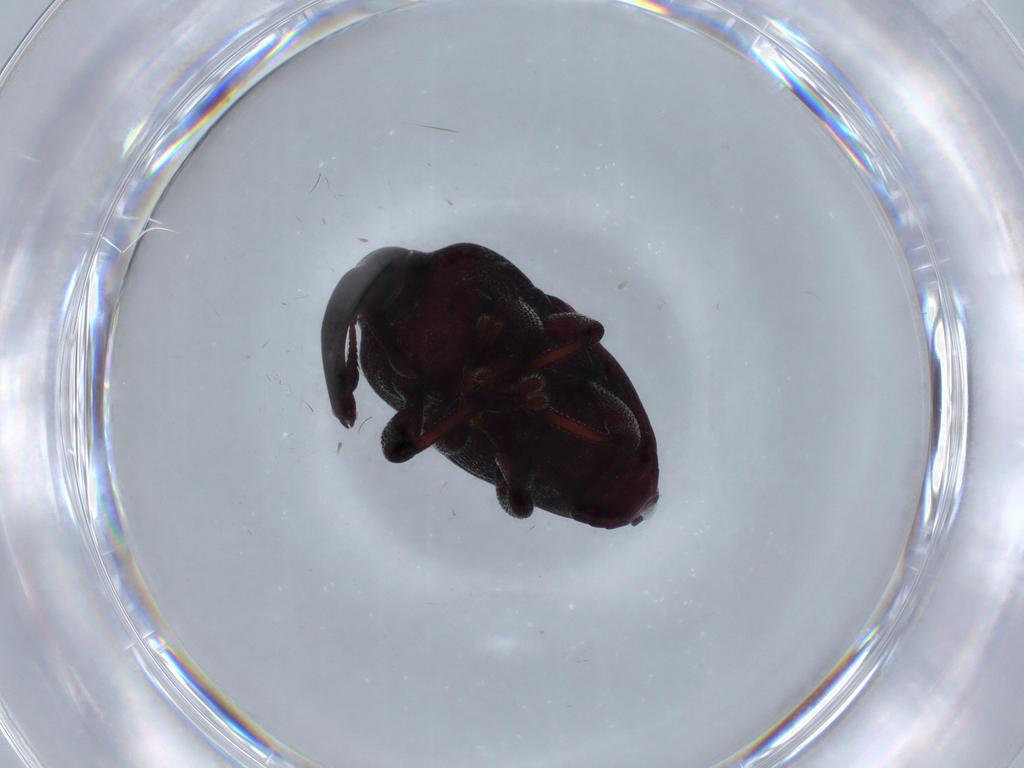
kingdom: Animalia
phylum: Arthropoda
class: Insecta
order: Coleoptera
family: Curculionidae
